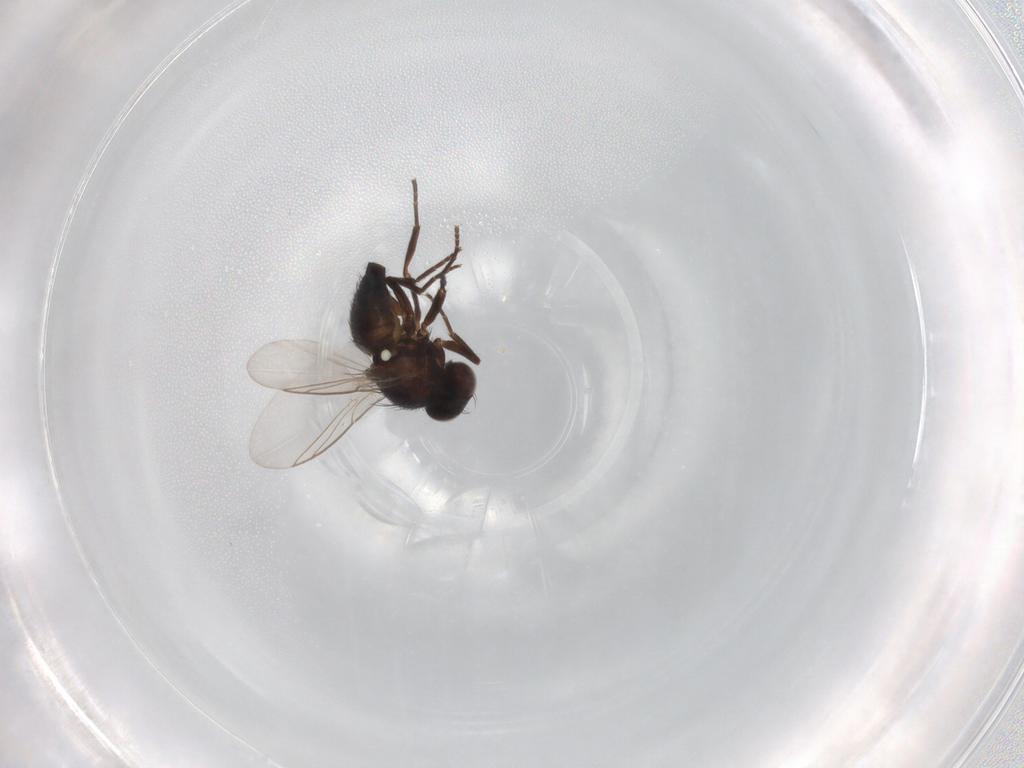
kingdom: Animalia
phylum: Arthropoda
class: Insecta
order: Diptera
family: Agromyzidae
